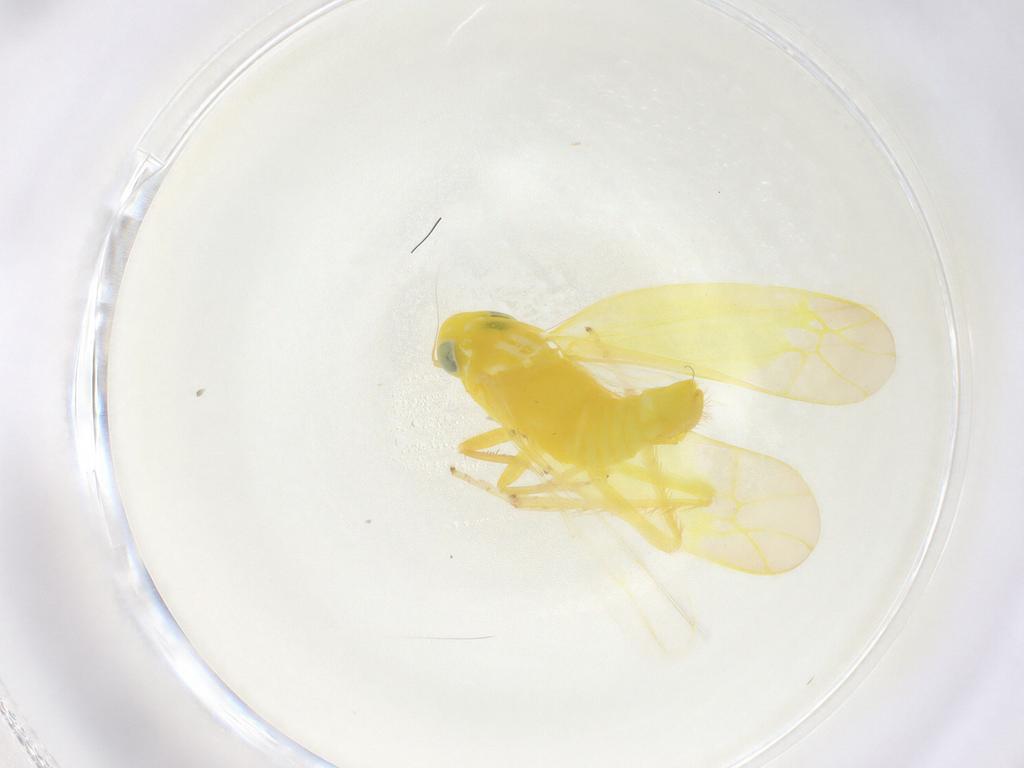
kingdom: Animalia
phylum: Arthropoda
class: Insecta
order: Hemiptera
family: Cicadellidae
